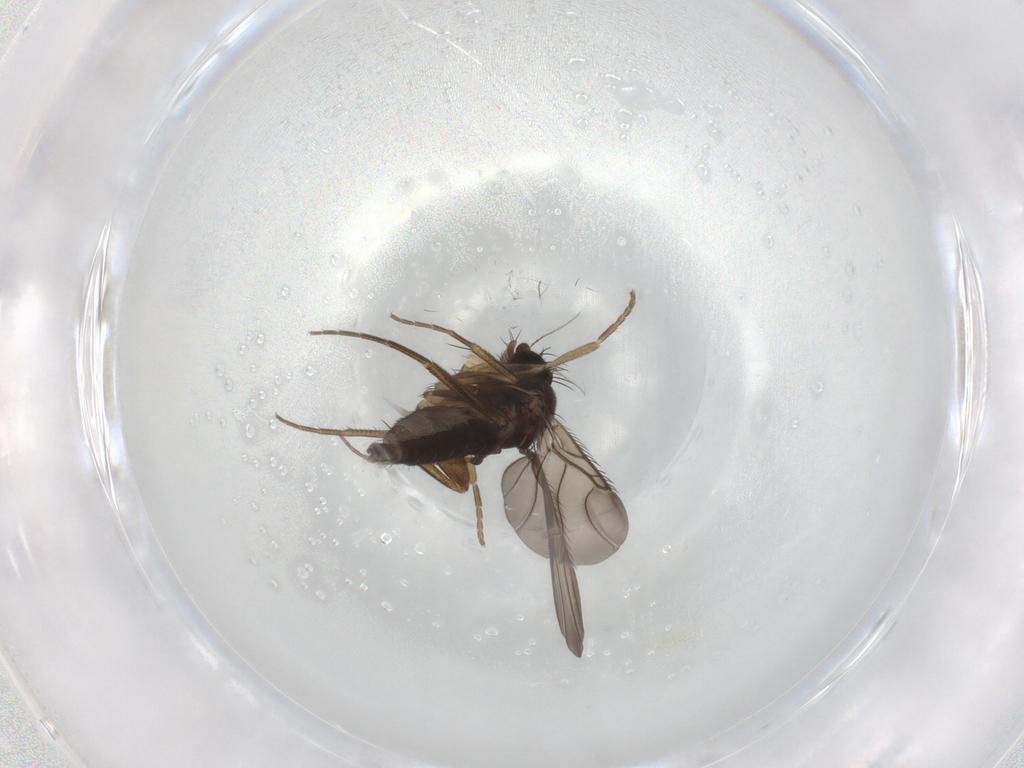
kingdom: Animalia
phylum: Arthropoda
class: Insecta
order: Diptera
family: Phoridae
